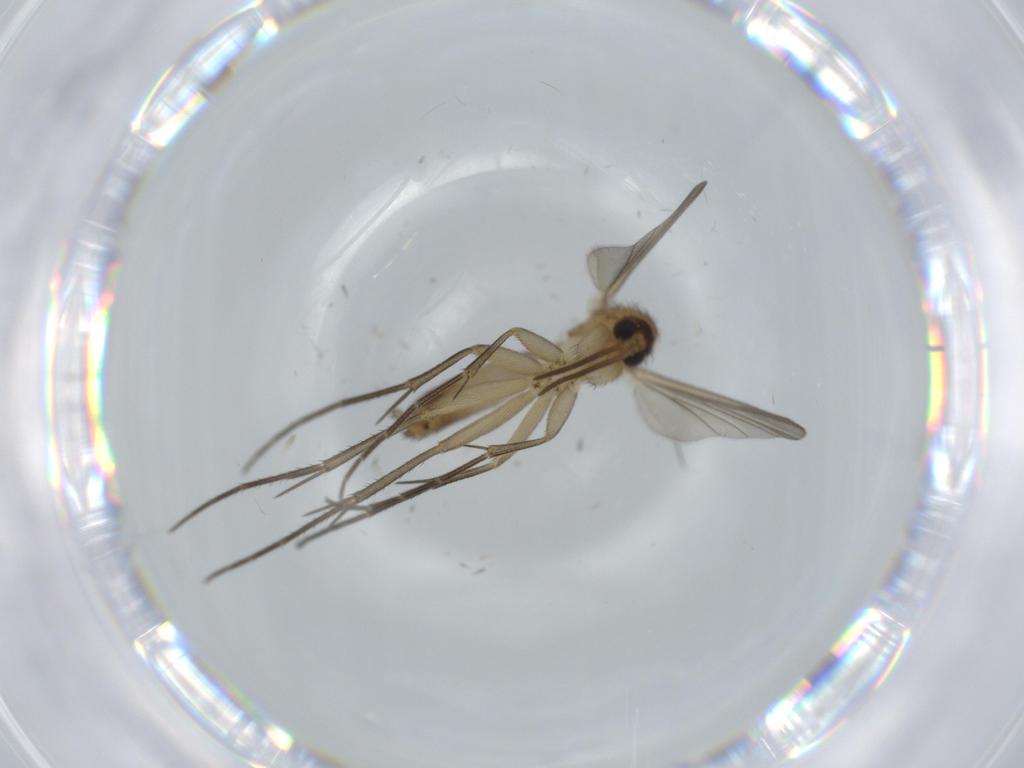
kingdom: Animalia
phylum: Arthropoda
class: Insecta
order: Diptera
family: Mycetophilidae
